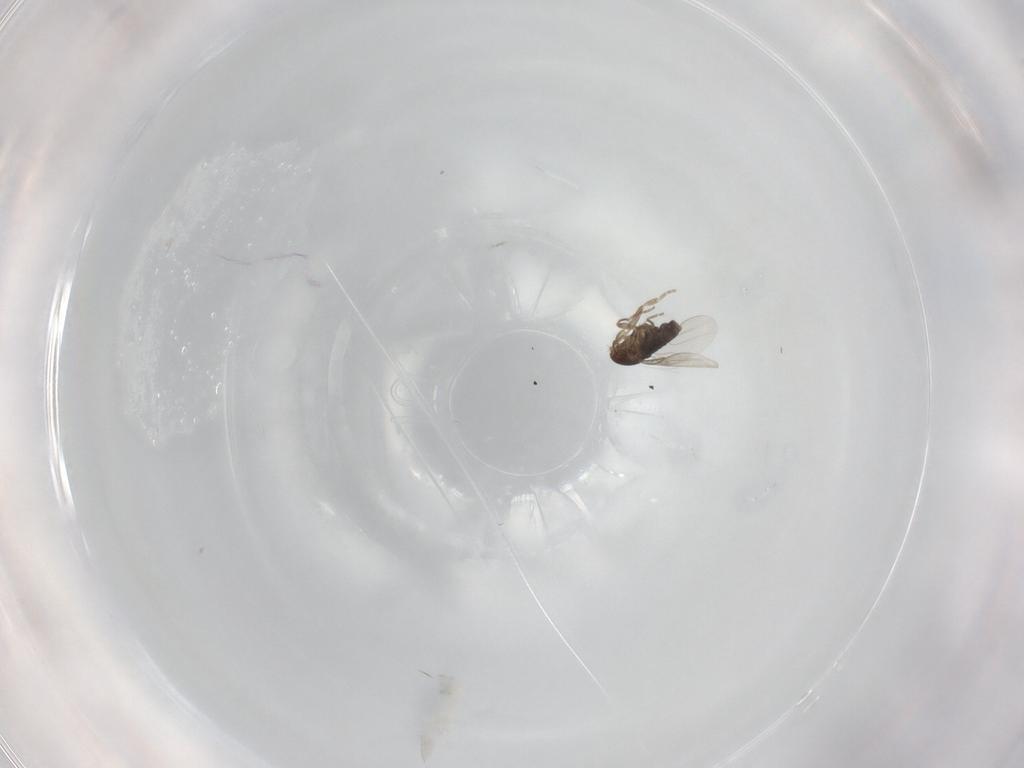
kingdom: Animalia
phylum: Arthropoda
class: Insecta
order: Diptera
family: Phoridae
